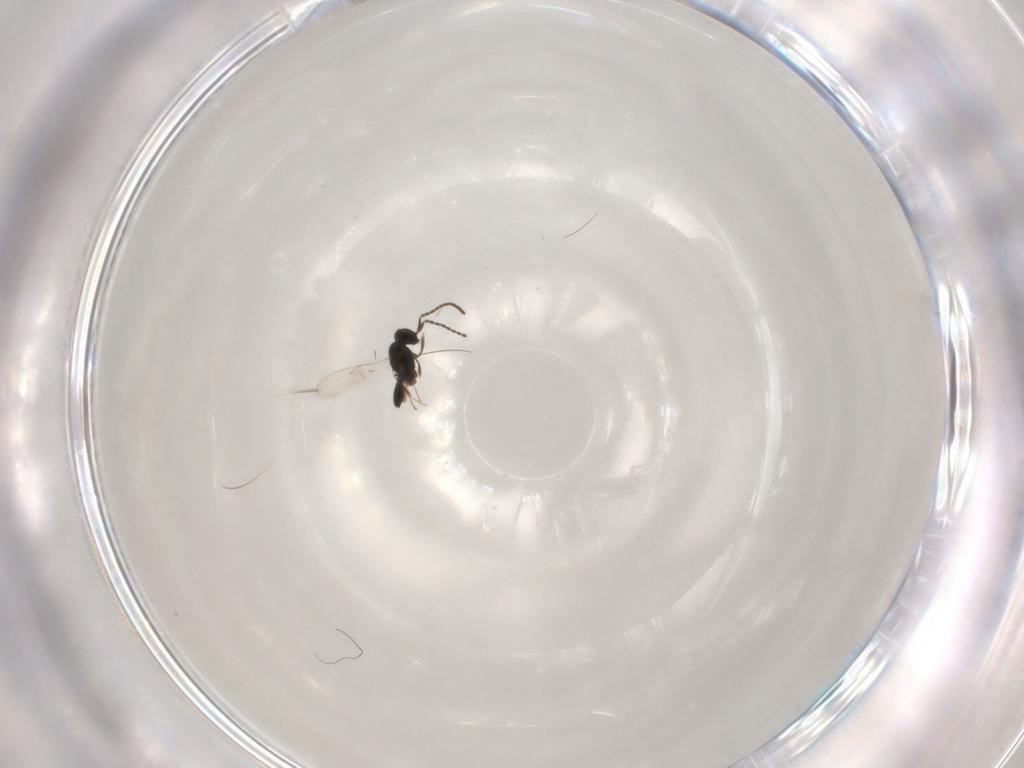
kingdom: Animalia
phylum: Arthropoda
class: Insecta
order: Hymenoptera
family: Scelionidae
